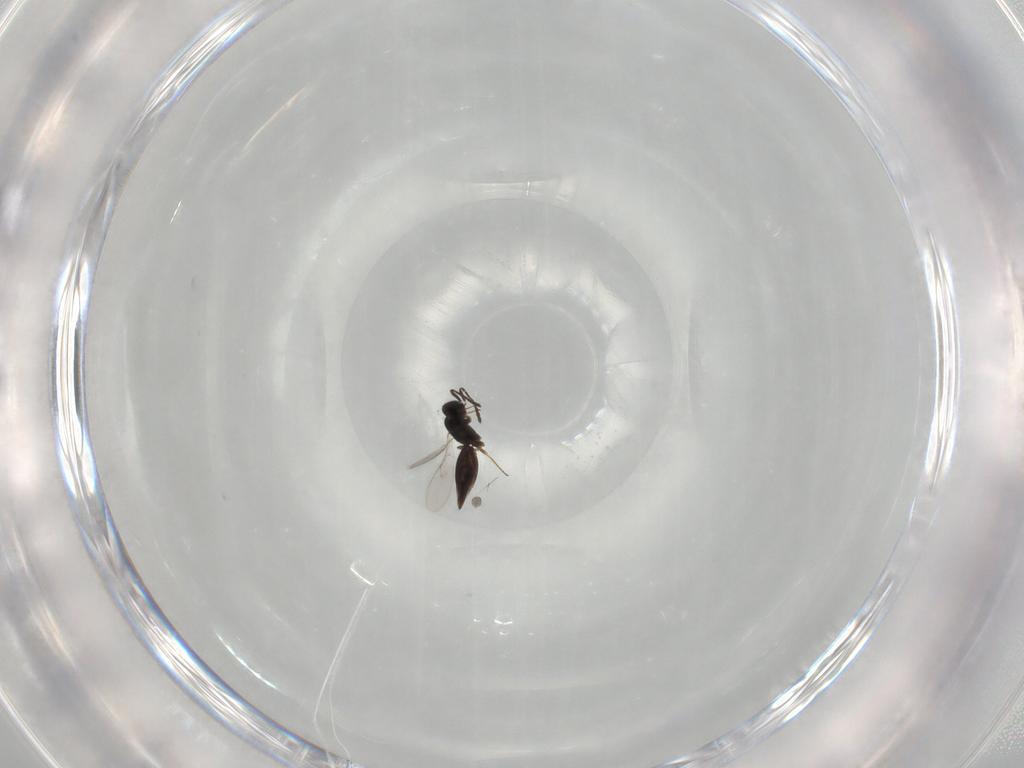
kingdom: Animalia
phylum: Arthropoda
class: Insecta
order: Hymenoptera
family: Scelionidae
